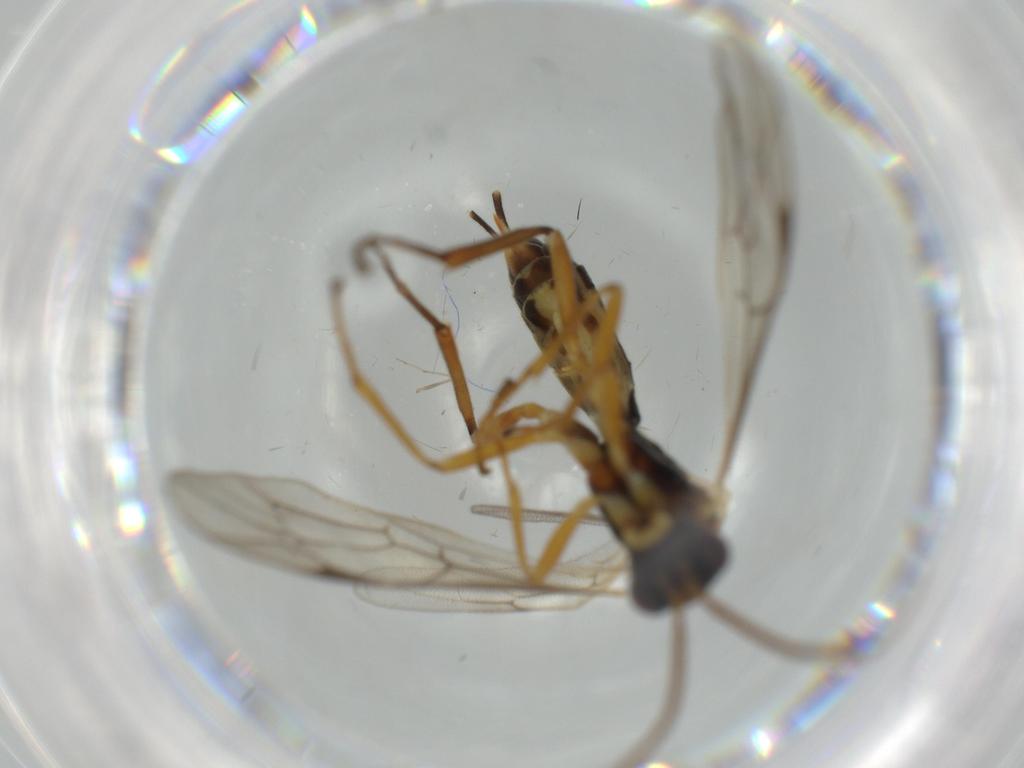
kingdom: Animalia
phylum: Arthropoda
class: Insecta
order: Hymenoptera
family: Ichneumonidae
